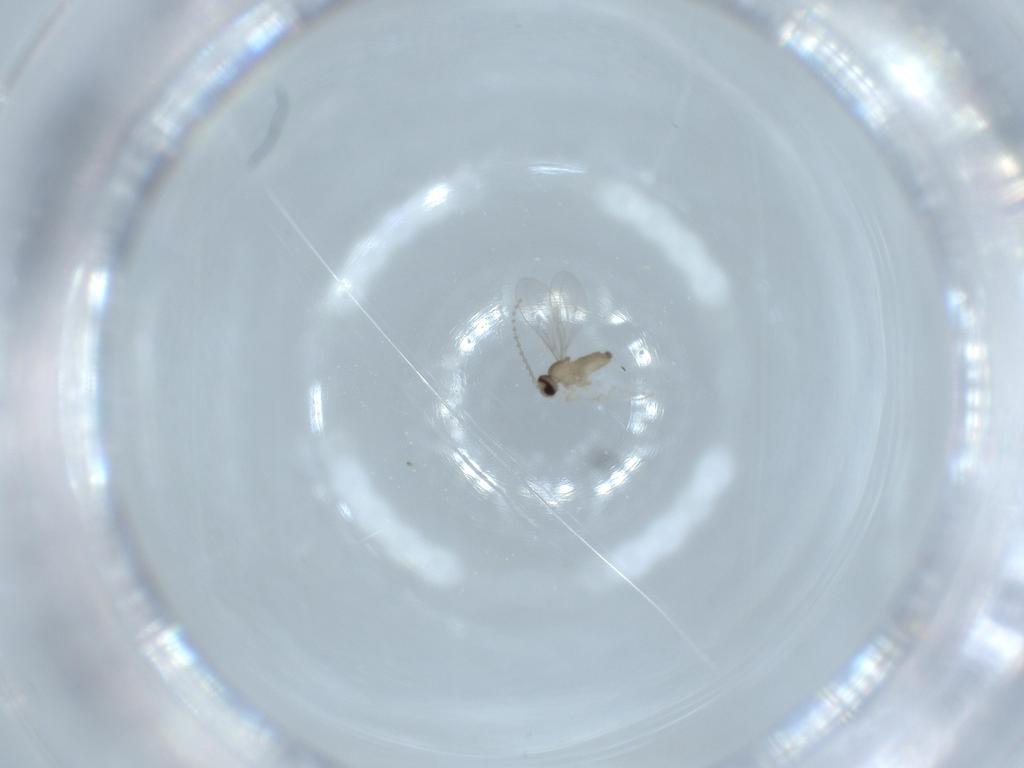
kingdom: Animalia
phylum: Arthropoda
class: Insecta
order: Diptera
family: Cecidomyiidae
